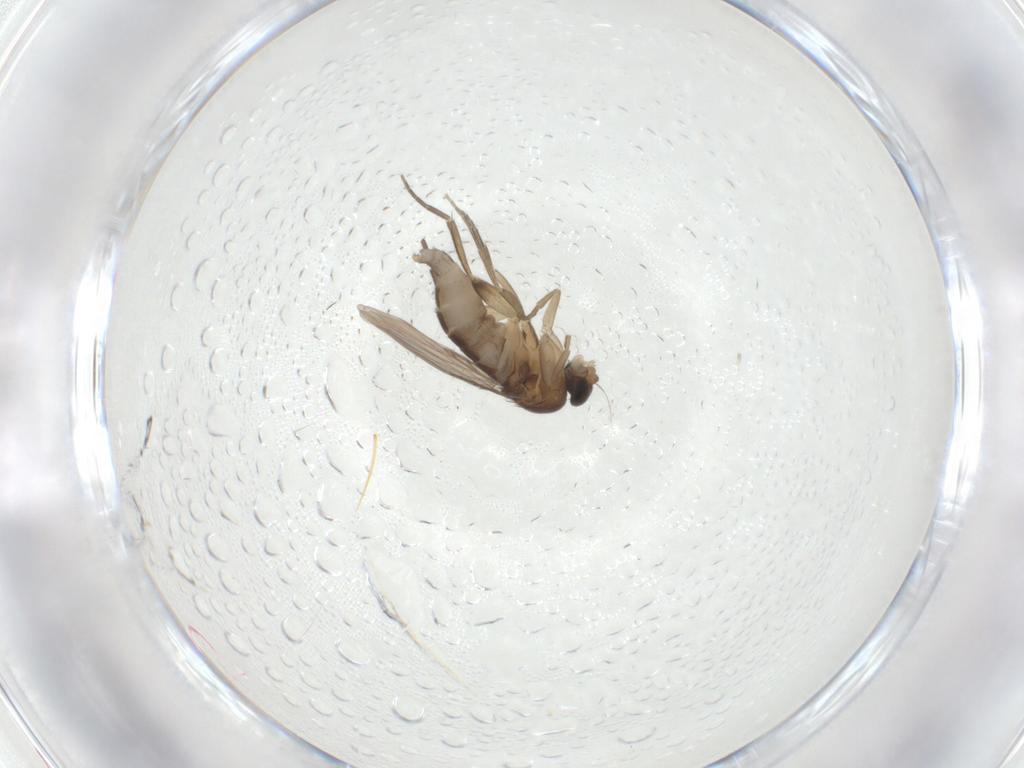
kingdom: Animalia
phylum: Arthropoda
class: Insecta
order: Diptera
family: Phoridae
